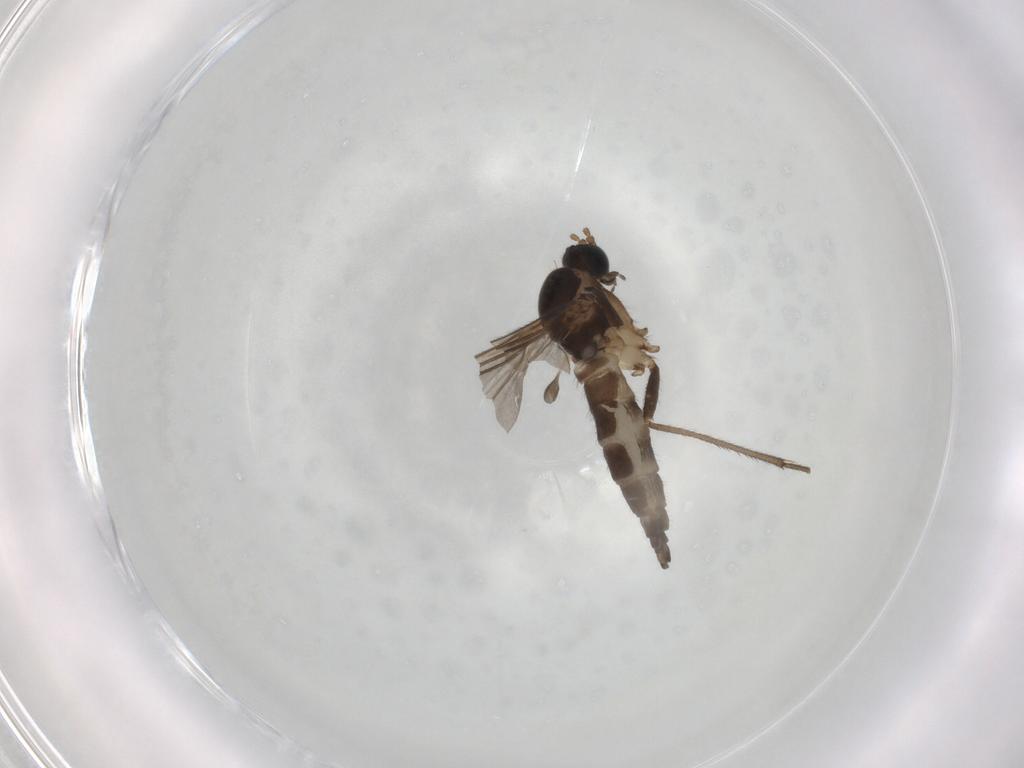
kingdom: Animalia
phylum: Arthropoda
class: Insecta
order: Diptera
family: Sciaridae
